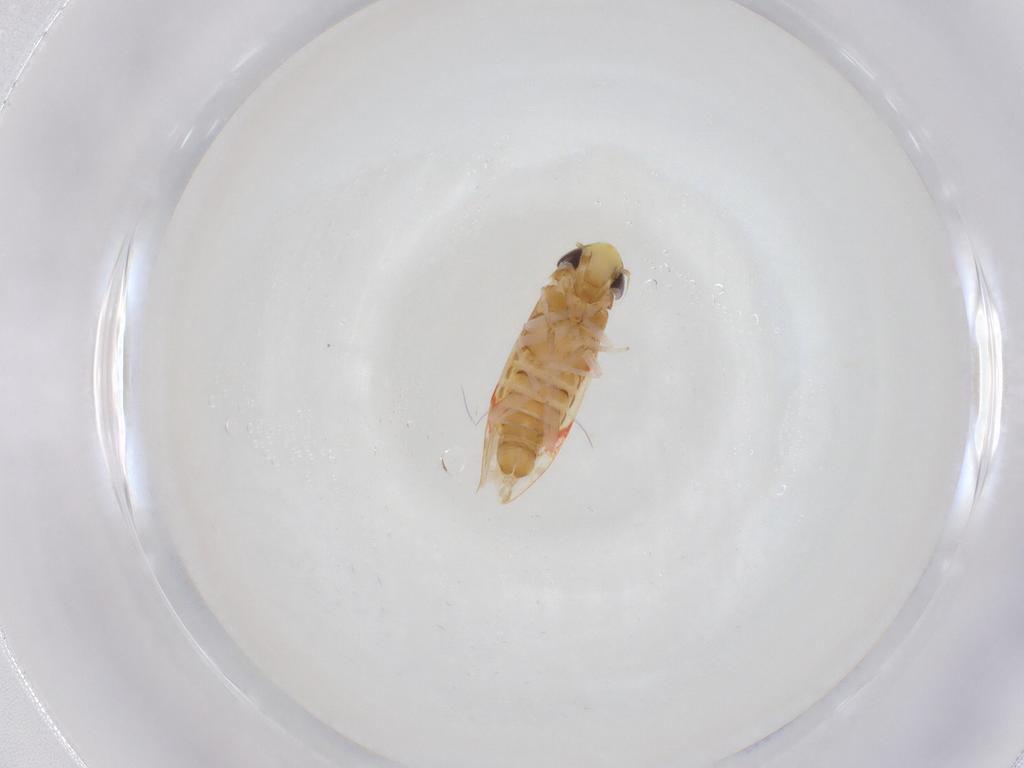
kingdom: Animalia
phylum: Arthropoda
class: Insecta
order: Hemiptera
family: Cicadellidae
